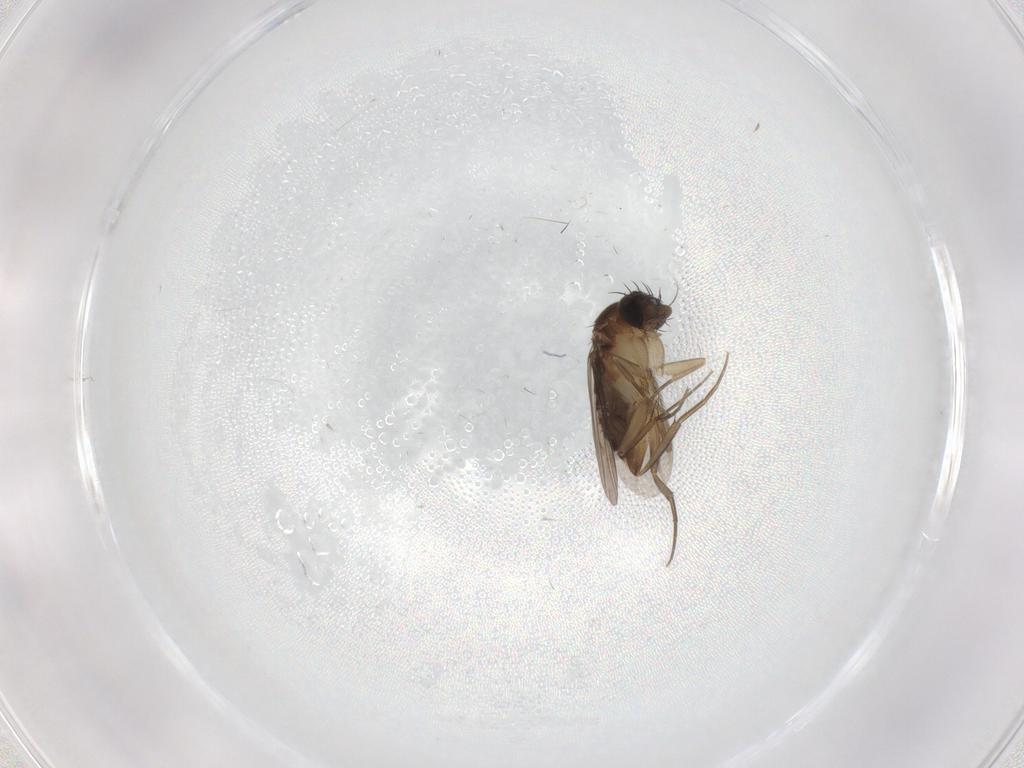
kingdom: Animalia
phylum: Arthropoda
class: Insecta
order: Diptera
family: Phoridae
